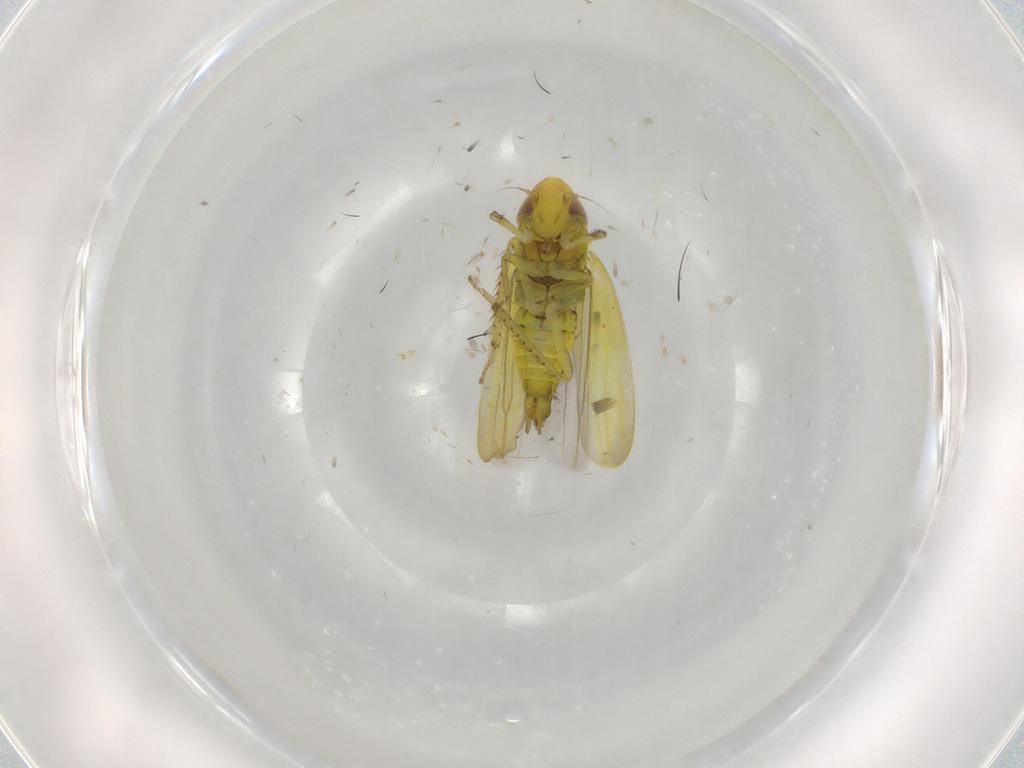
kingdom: Animalia
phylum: Arthropoda
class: Insecta
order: Hemiptera
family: Cicadellidae
